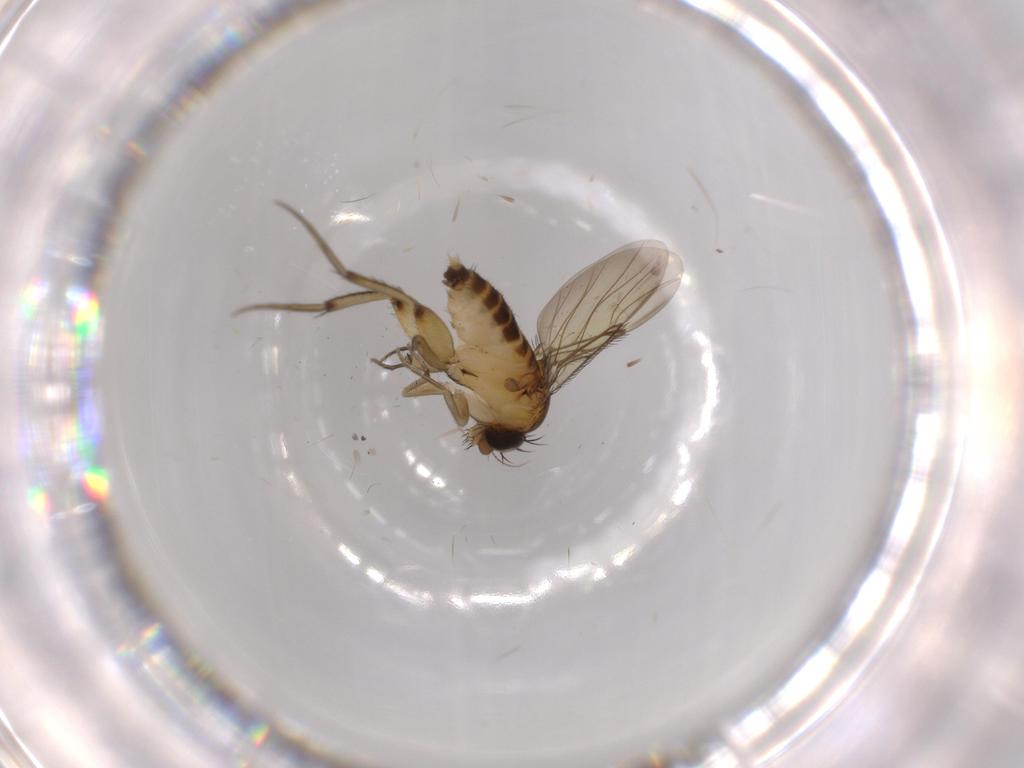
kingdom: Animalia
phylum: Arthropoda
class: Insecta
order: Diptera
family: Phoridae
